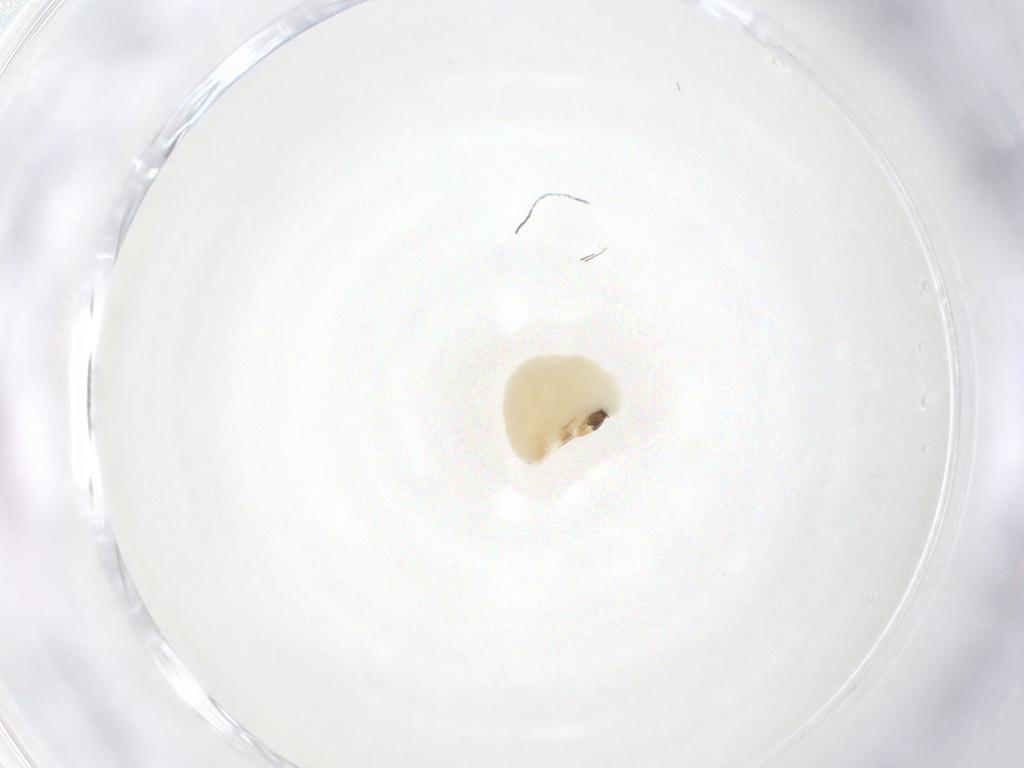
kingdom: Animalia
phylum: Arthropoda
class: Insecta
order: Hymenoptera
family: Eulophidae
